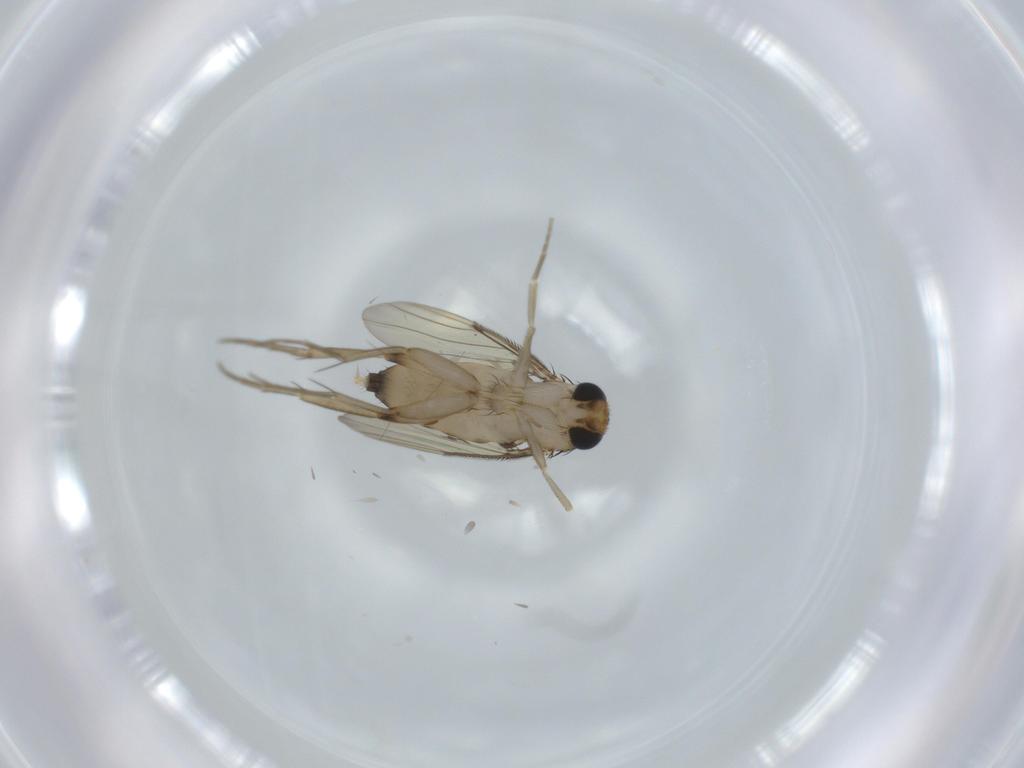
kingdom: Animalia
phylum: Arthropoda
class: Insecta
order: Diptera
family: Phoridae
